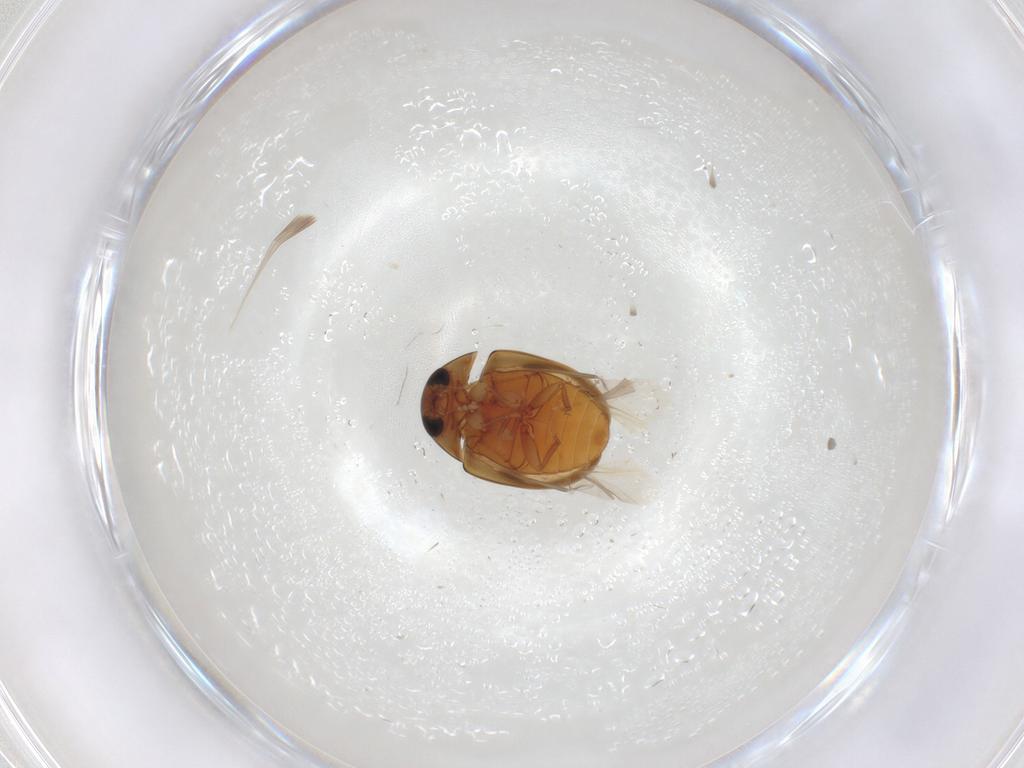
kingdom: Animalia
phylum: Arthropoda
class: Insecta
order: Coleoptera
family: Phalacridae
